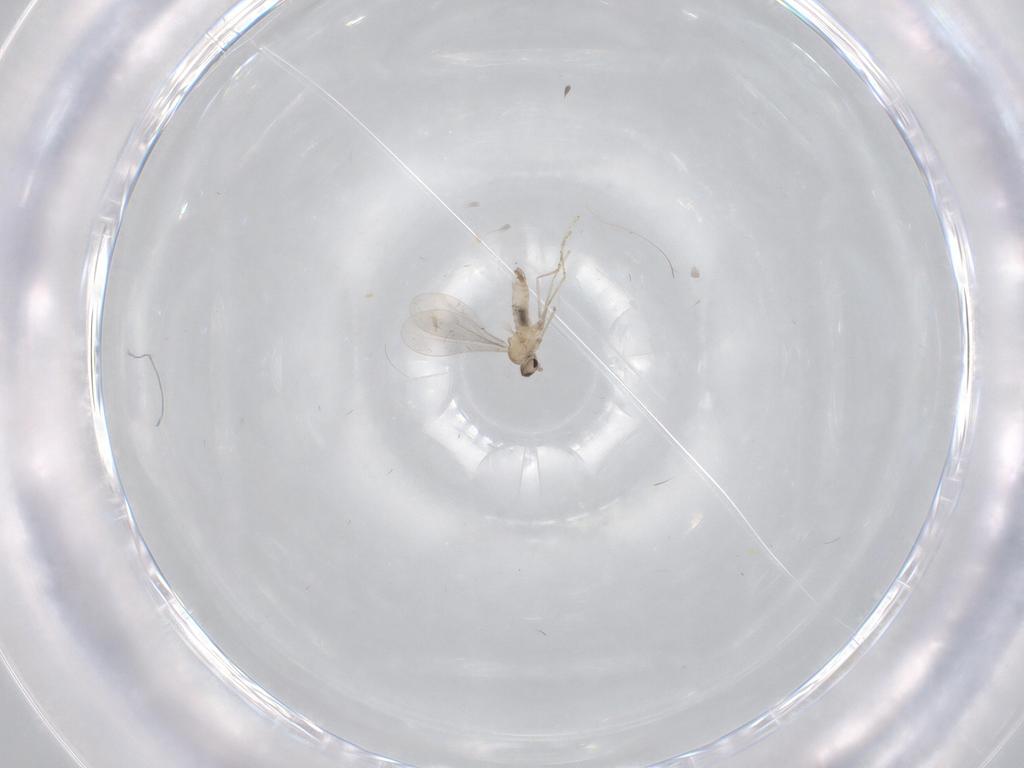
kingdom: Animalia
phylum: Arthropoda
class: Insecta
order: Diptera
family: Cecidomyiidae
